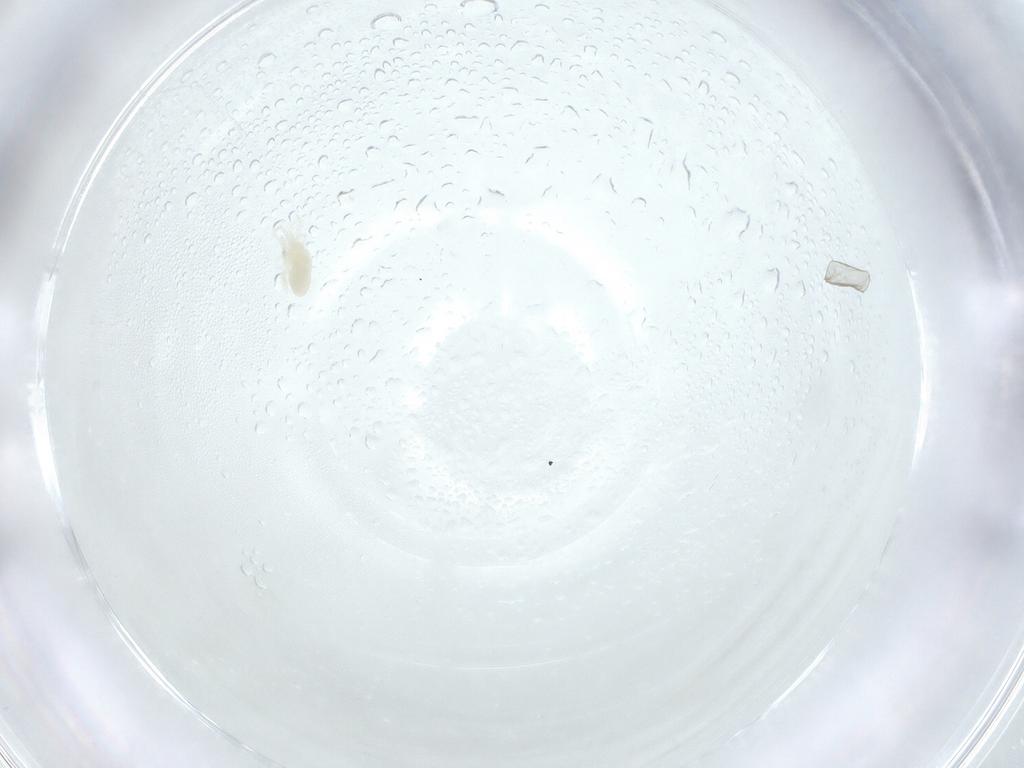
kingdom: Animalia
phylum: Arthropoda
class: Arachnida
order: Trombidiformes
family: Eupodidae
